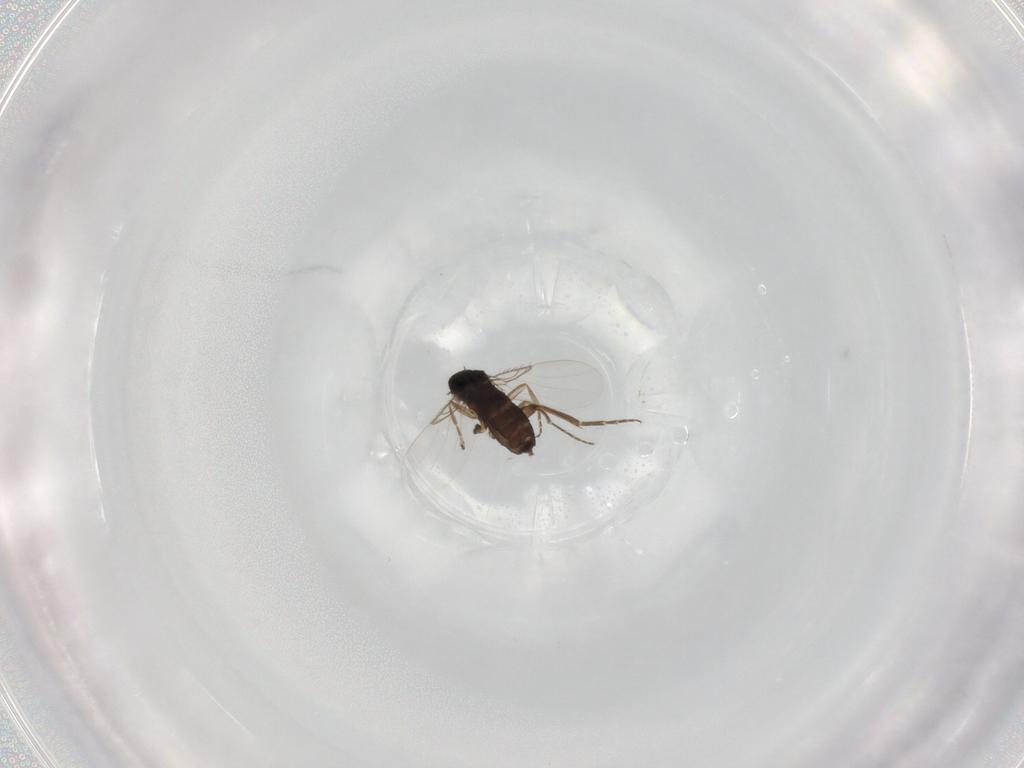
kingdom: Animalia
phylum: Arthropoda
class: Insecta
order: Diptera
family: Phoridae
